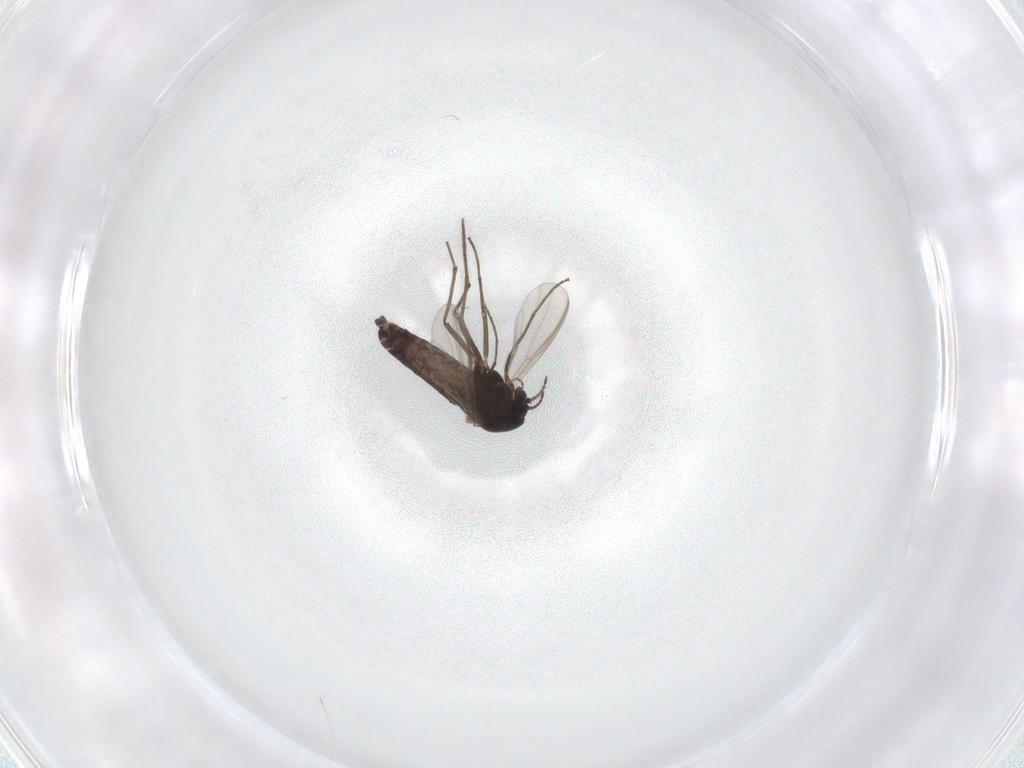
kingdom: Animalia
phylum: Arthropoda
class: Insecta
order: Diptera
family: Chironomidae
